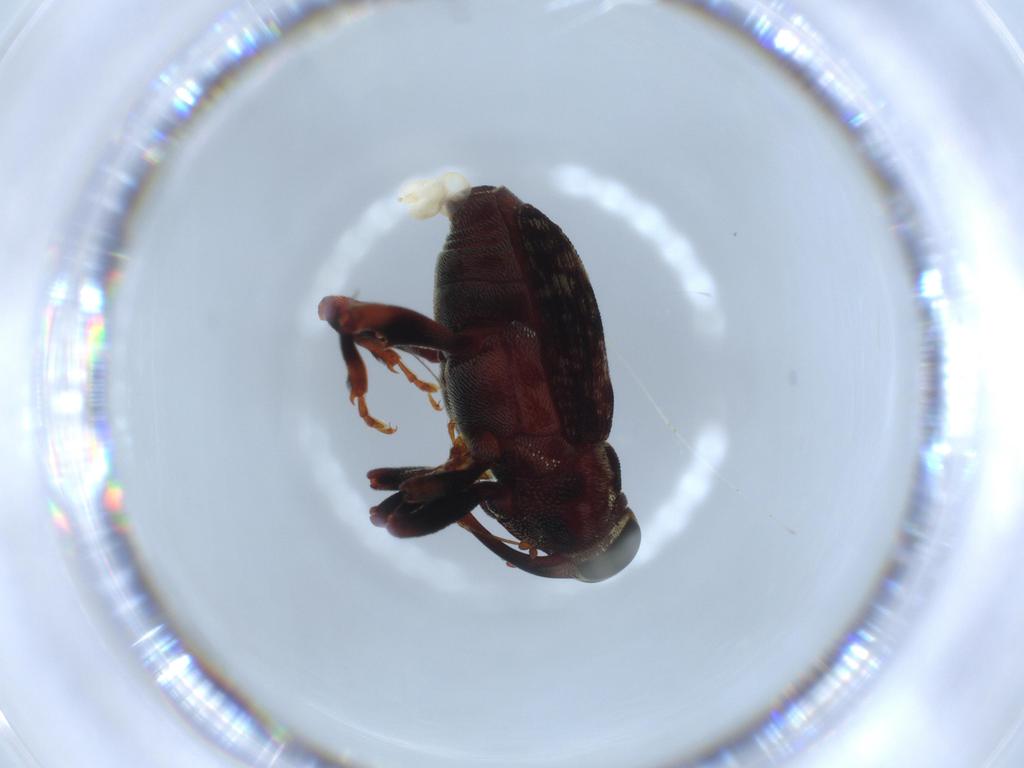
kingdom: Animalia
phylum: Arthropoda
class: Insecta
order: Coleoptera
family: Curculionidae
